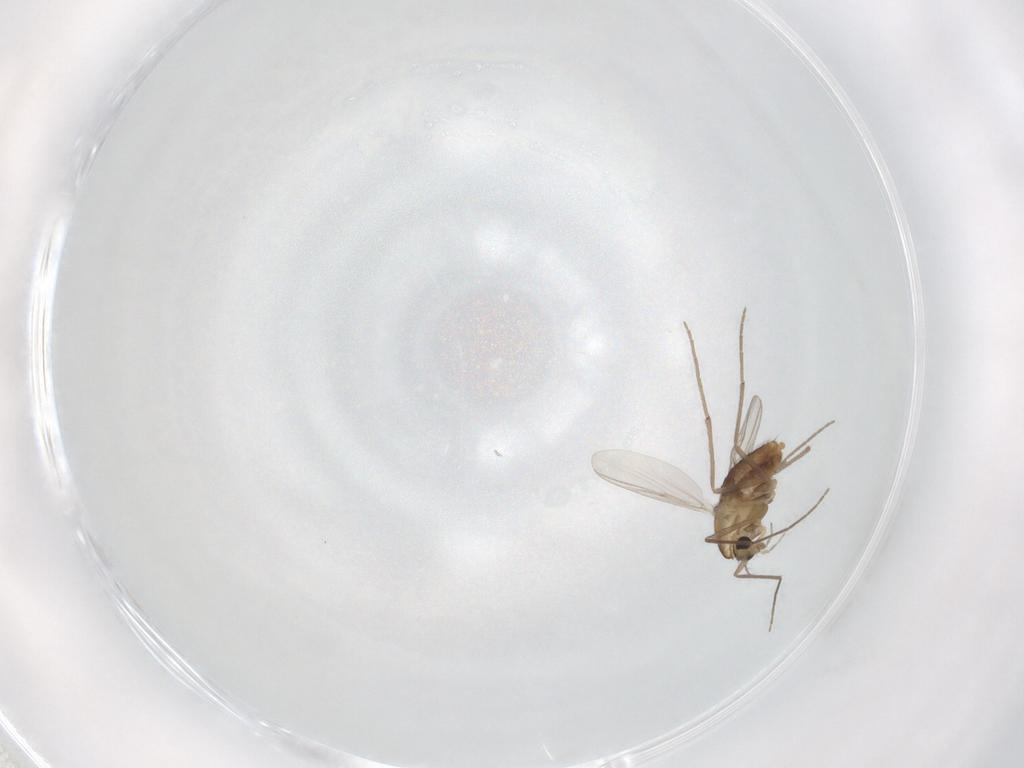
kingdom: Animalia
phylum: Arthropoda
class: Insecta
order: Diptera
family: Chironomidae
